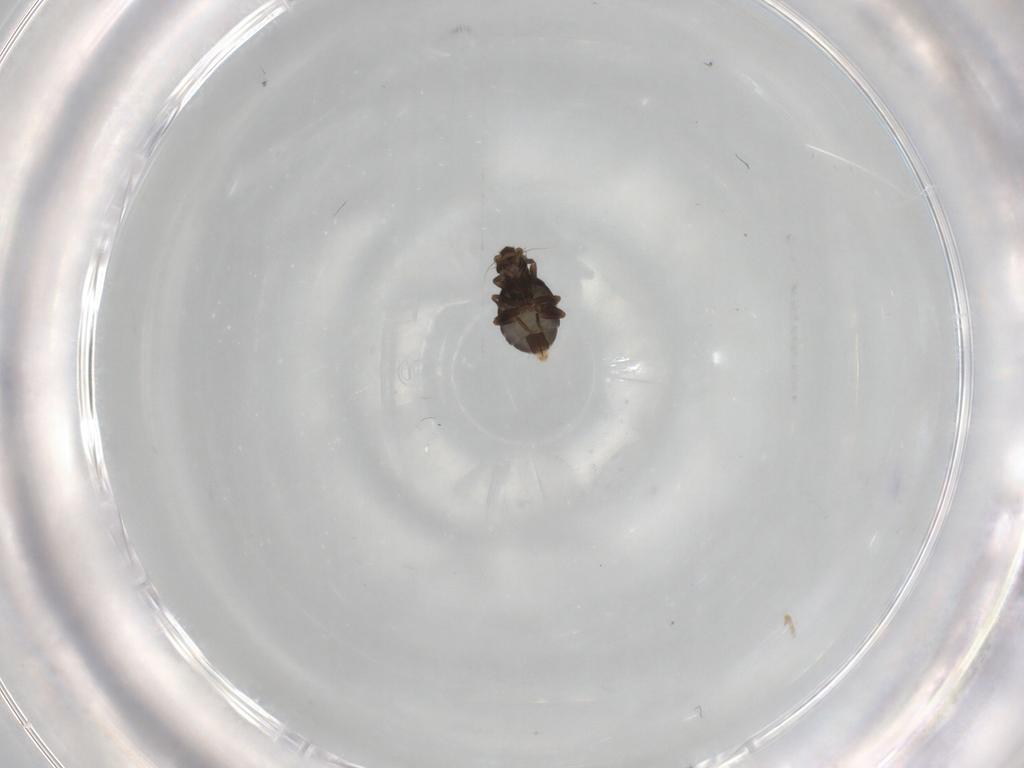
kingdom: Animalia
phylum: Arthropoda
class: Insecta
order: Diptera
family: Phoridae
